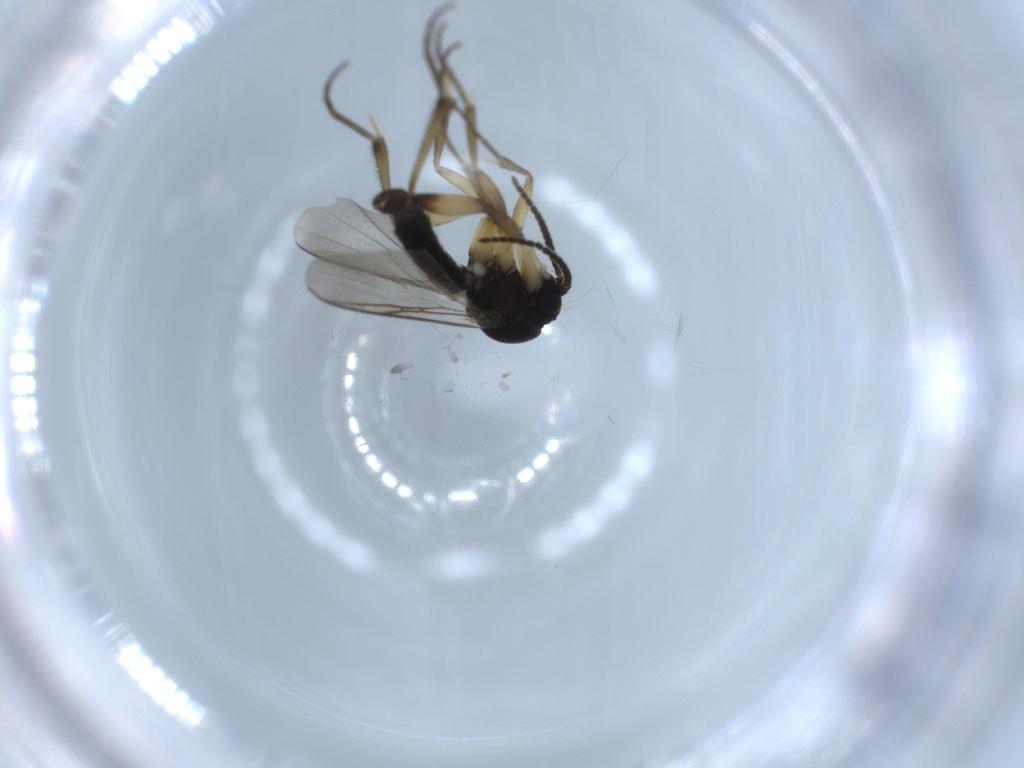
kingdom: Animalia
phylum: Arthropoda
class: Insecta
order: Diptera
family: Mycetophilidae
